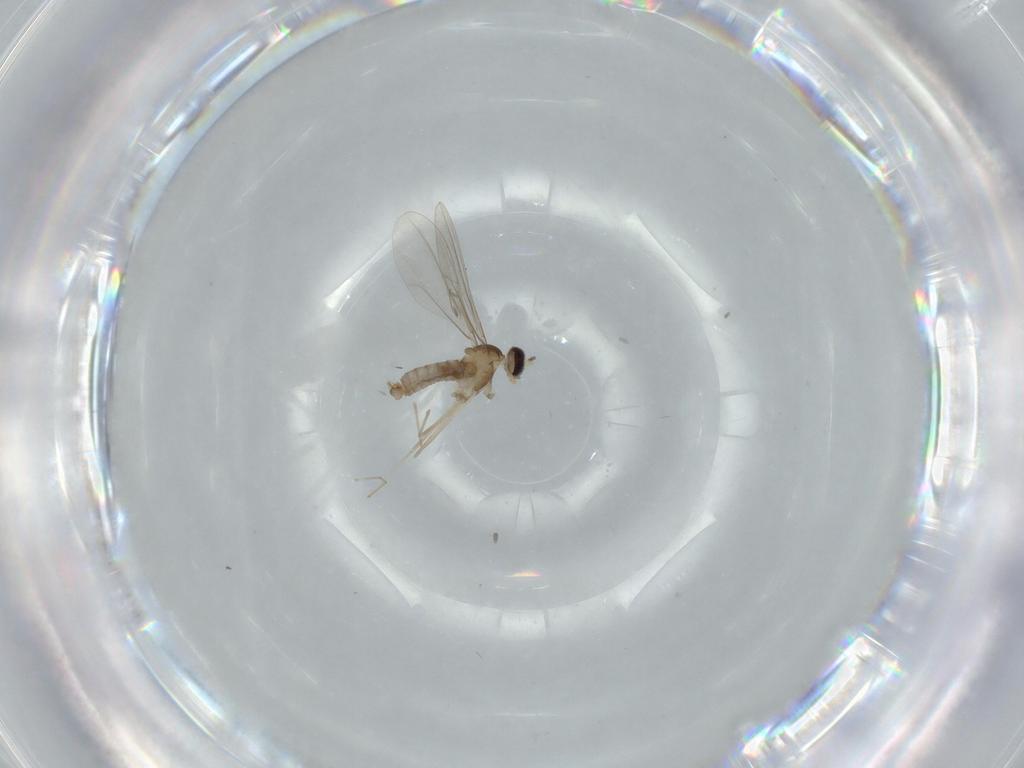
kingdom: Animalia
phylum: Arthropoda
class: Insecta
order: Diptera
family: Cecidomyiidae
